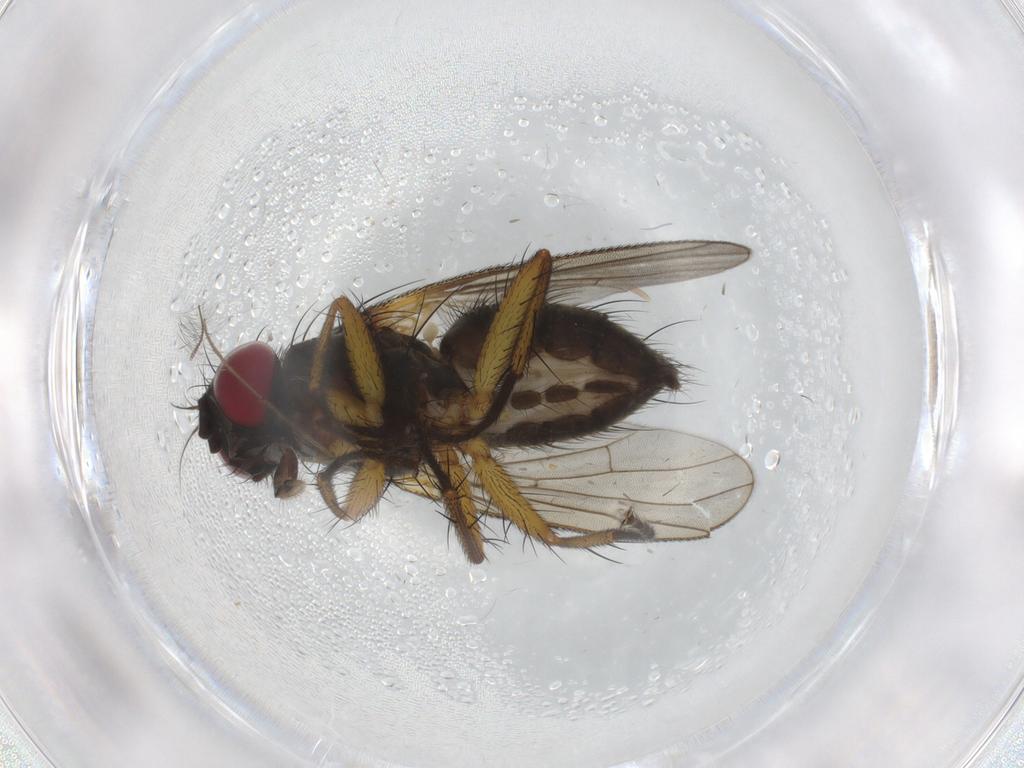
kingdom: Animalia
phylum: Arthropoda
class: Insecta
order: Diptera
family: Muscidae
